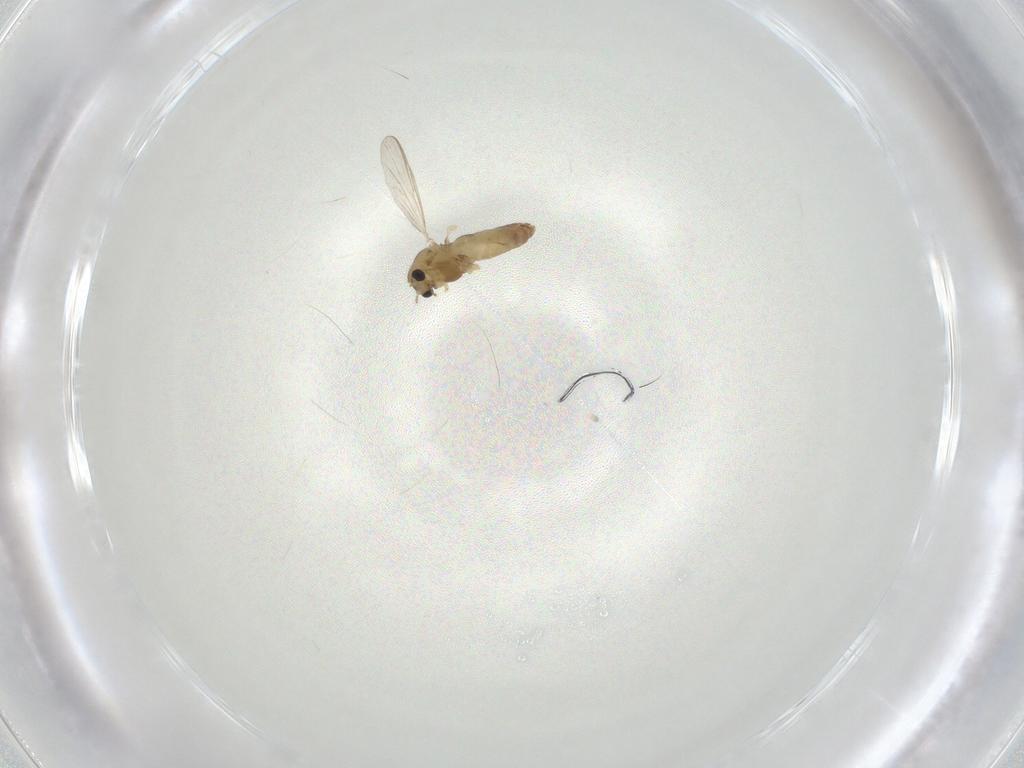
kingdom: Animalia
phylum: Arthropoda
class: Insecta
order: Diptera
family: Chironomidae
